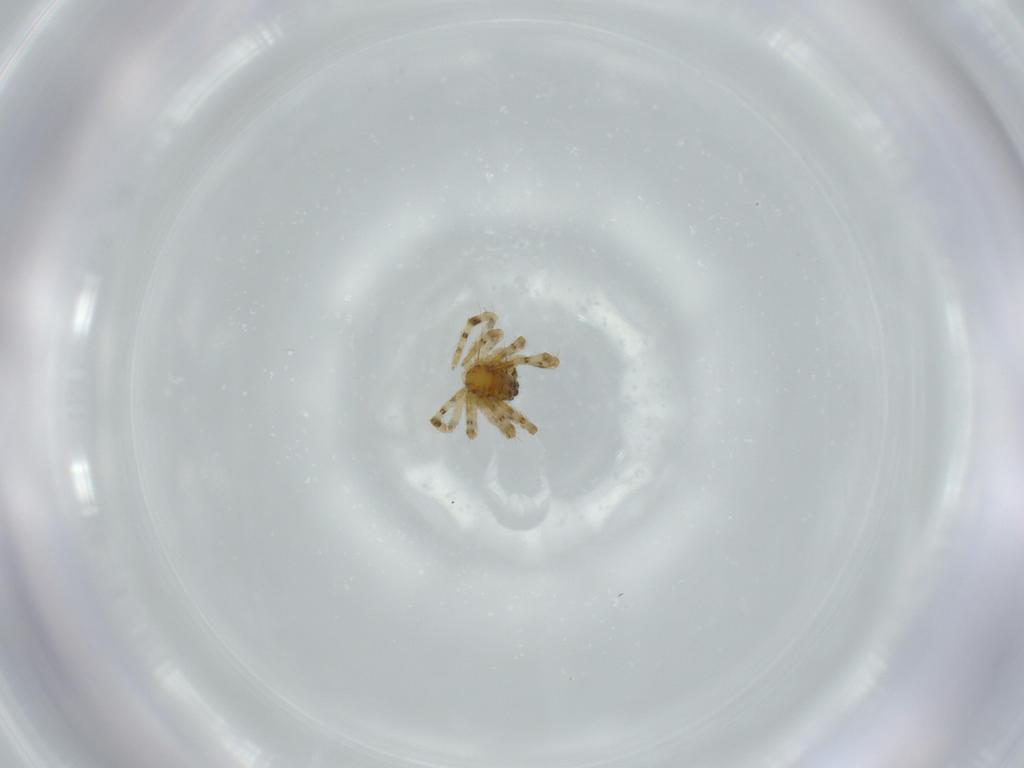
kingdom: Animalia
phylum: Arthropoda
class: Arachnida
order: Araneae
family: Theridiidae
